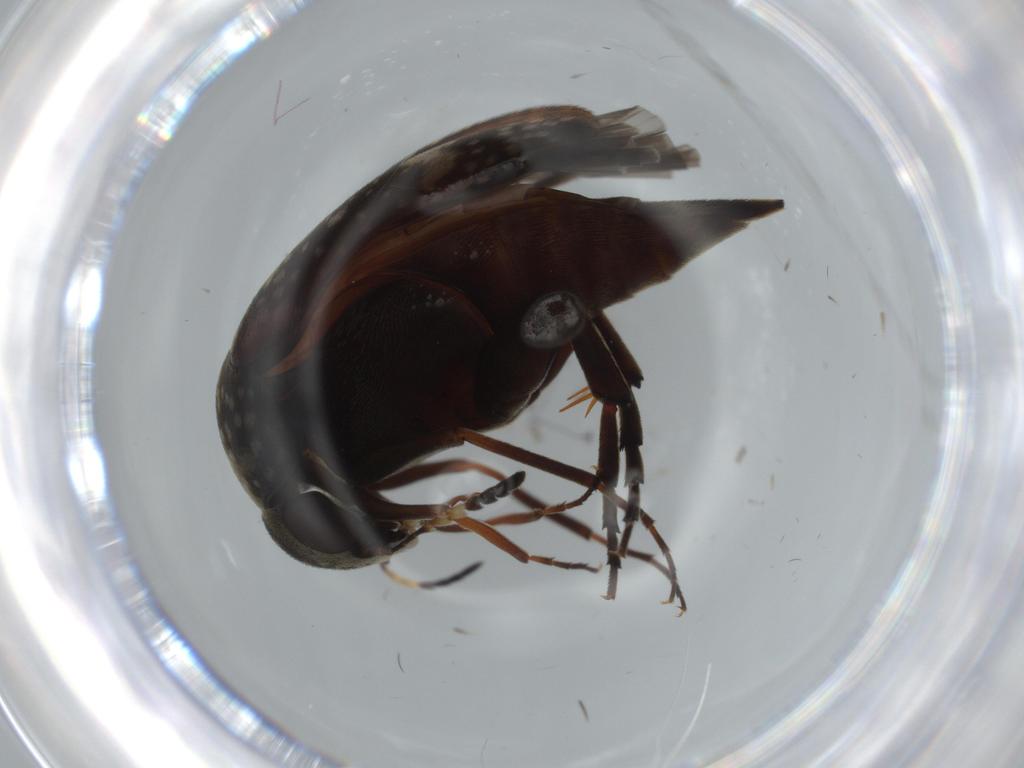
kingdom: Animalia
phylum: Arthropoda
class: Insecta
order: Coleoptera
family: Mordellidae
